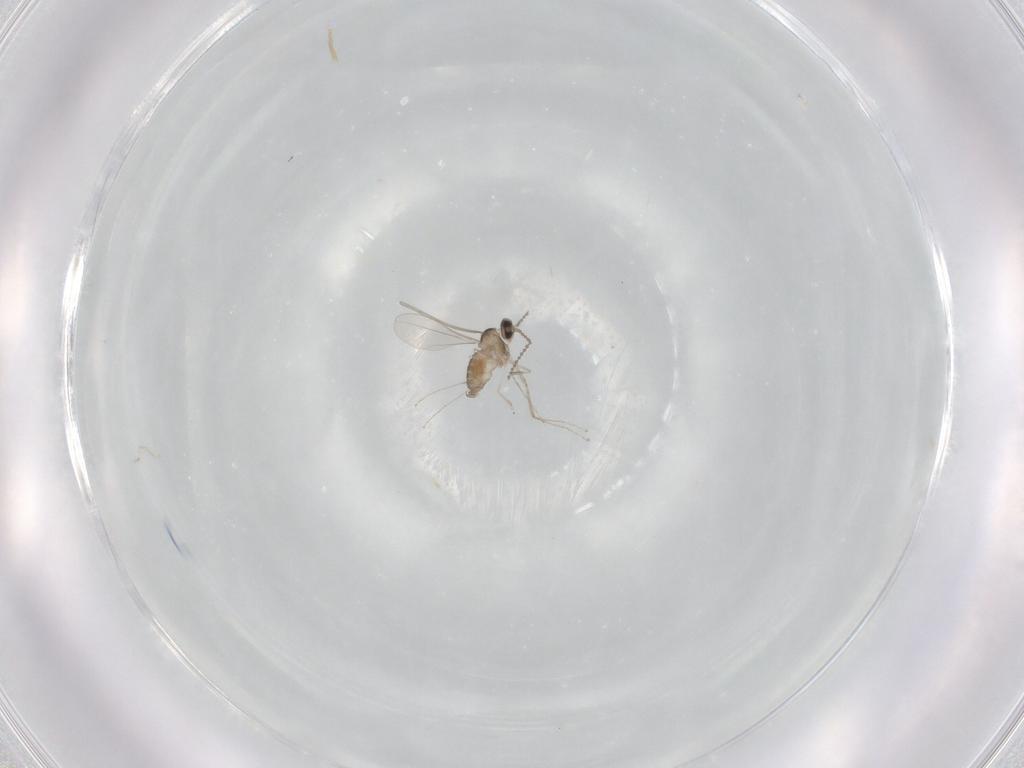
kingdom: Animalia
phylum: Arthropoda
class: Insecta
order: Diptera
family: Cecidomyiidae
